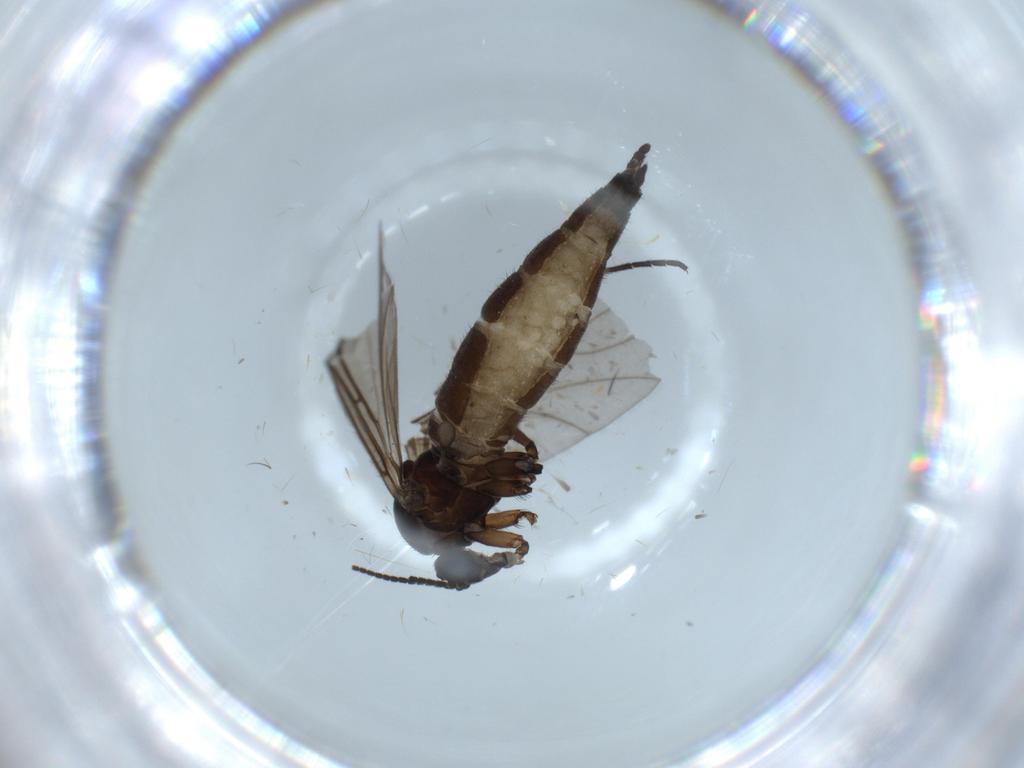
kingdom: Animalia
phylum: Arthropoda
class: Insecta
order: Diptera
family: Sciaridae
